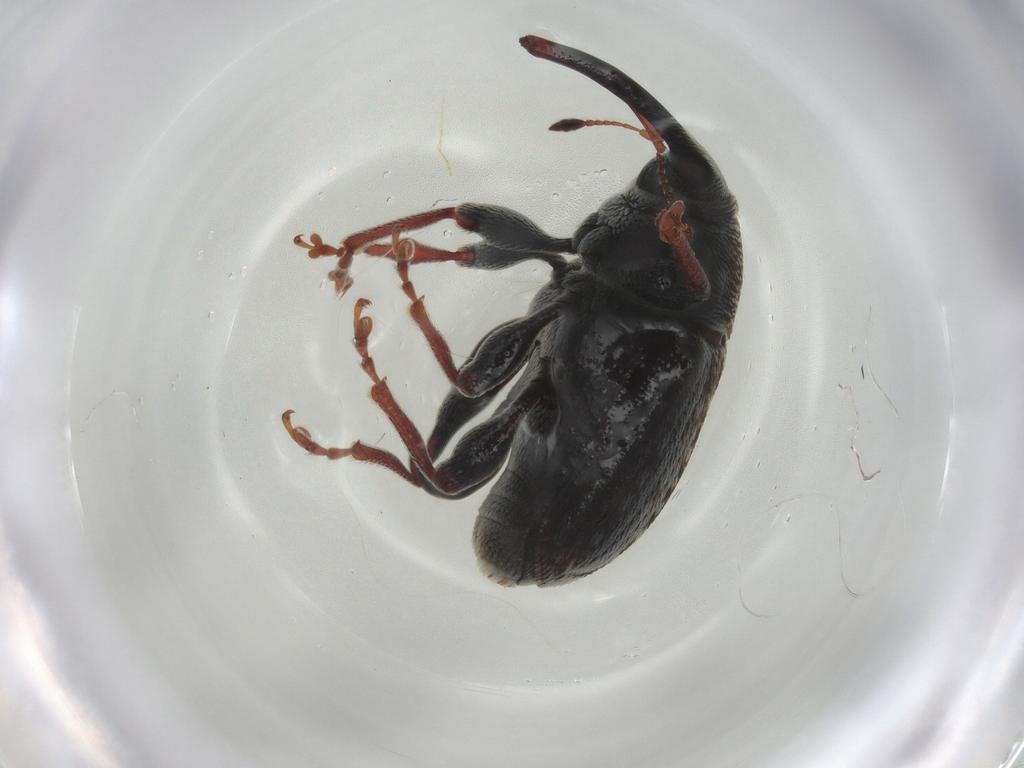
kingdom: Animalia
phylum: Arthropoda
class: Insecta
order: Coleoptera
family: Curculionidae
